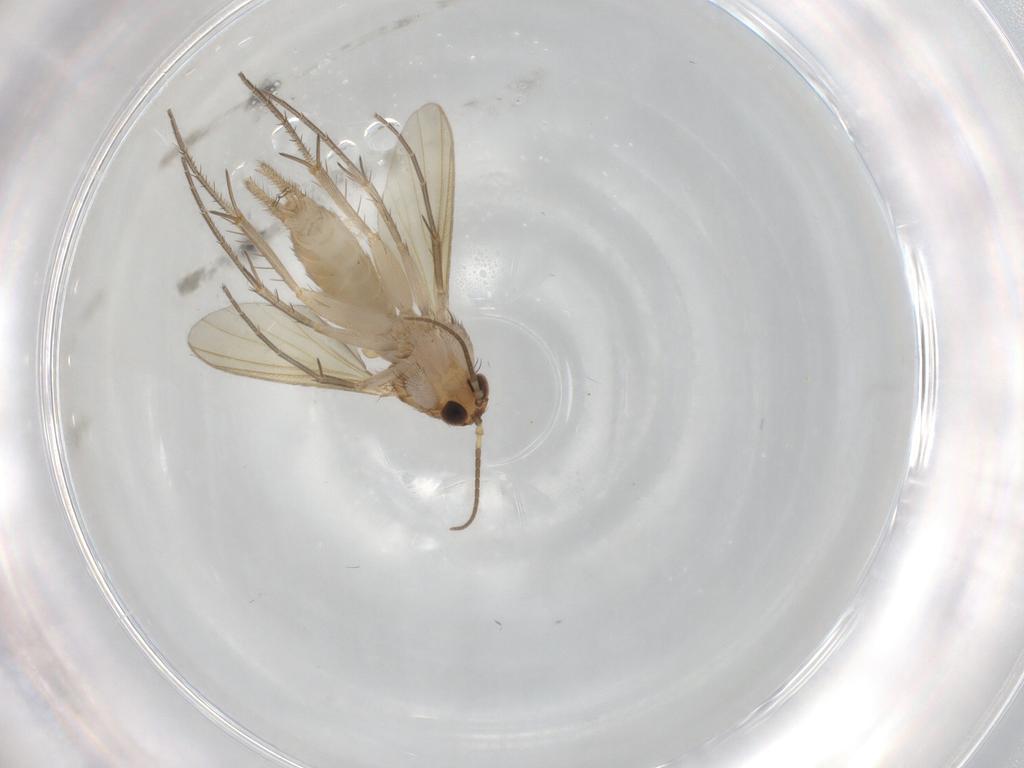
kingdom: Animalia
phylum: Arthropoda
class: Insecta
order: Diptera
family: Mycetophilidae
